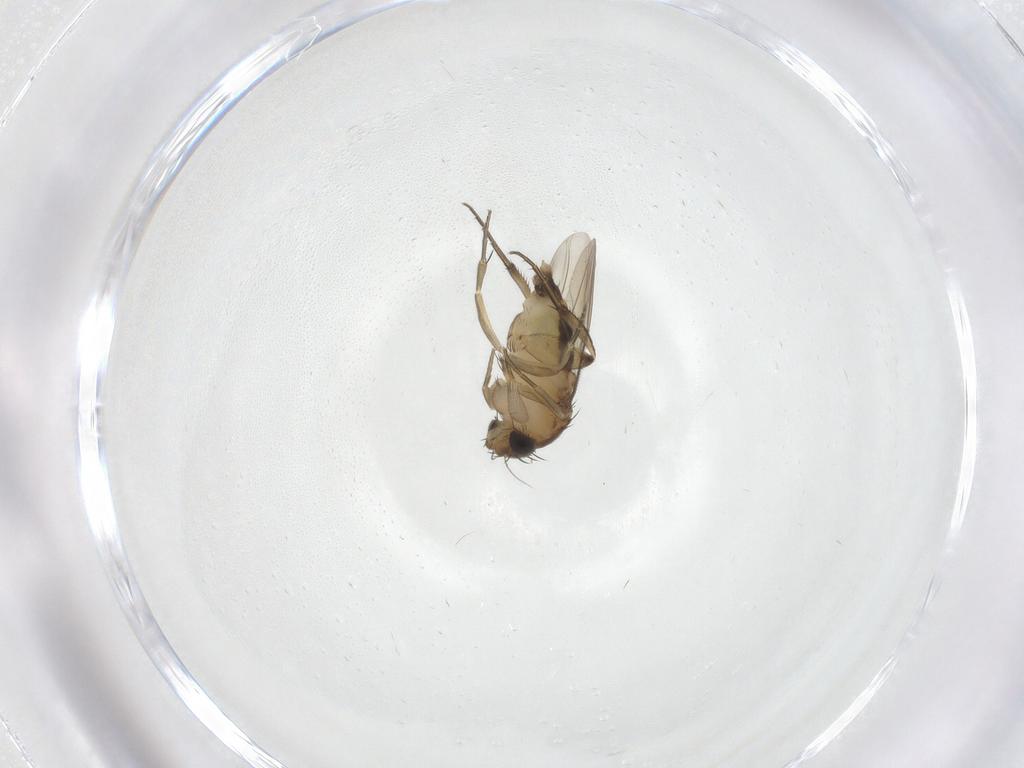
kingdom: Animalia
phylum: Arthropoda
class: Insecta
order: Diptera
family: Phoridae
